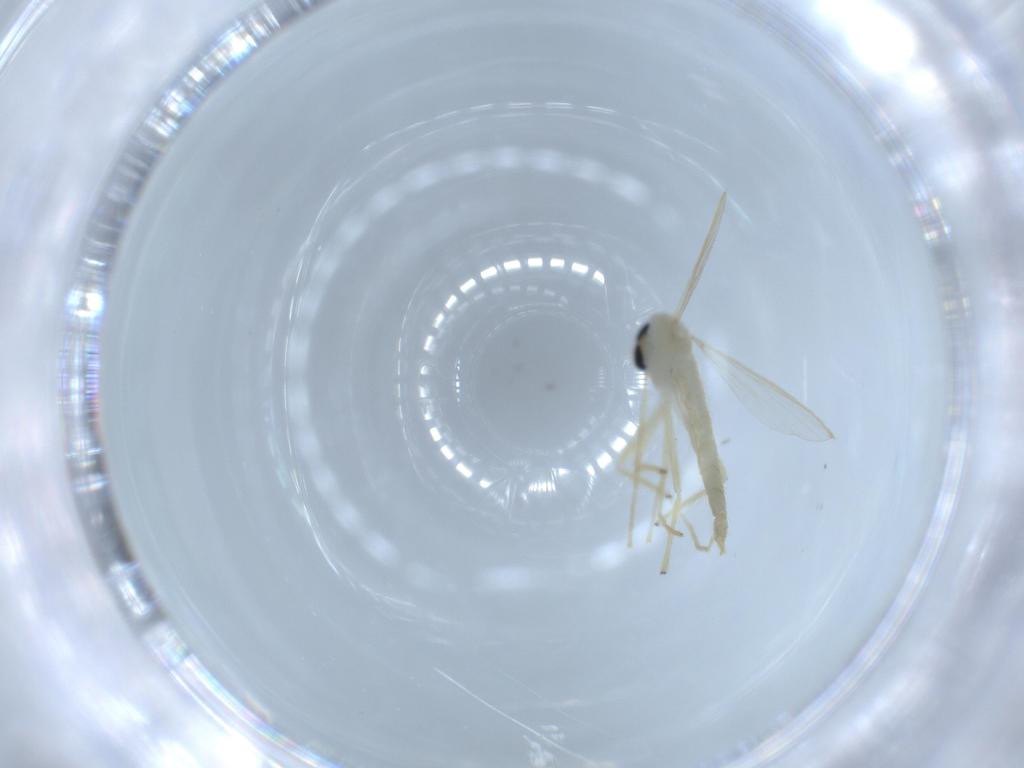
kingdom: Animalia
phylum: Arthropoda
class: Insecta
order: Diptera
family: Chironomidae
